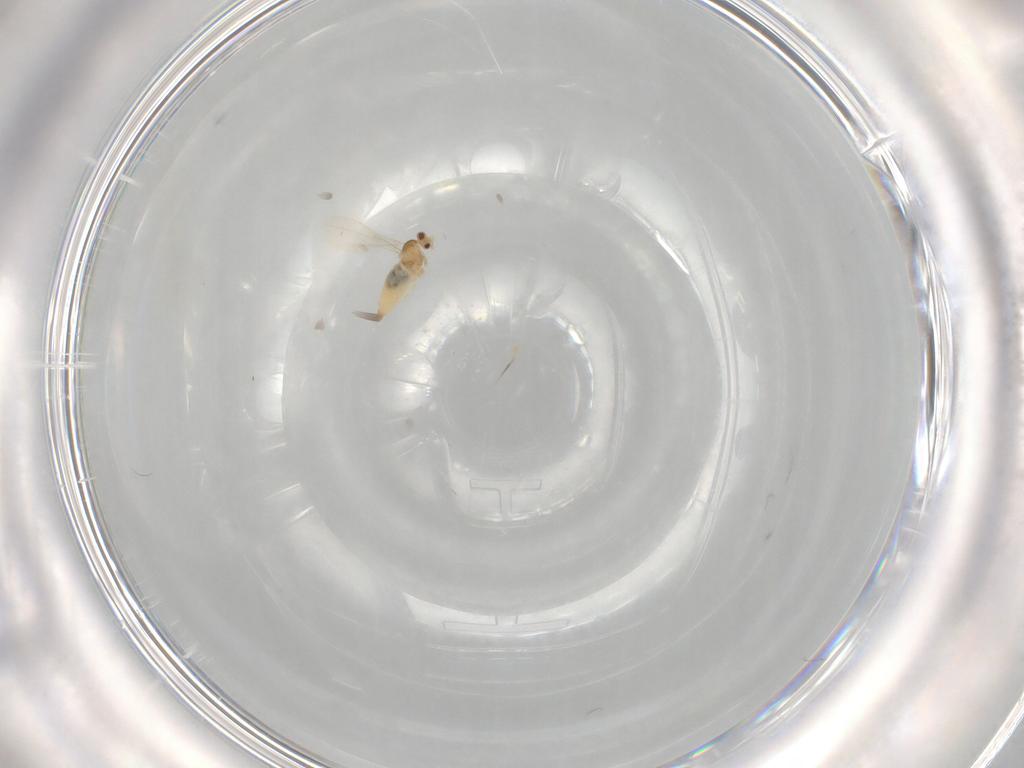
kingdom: Animalia
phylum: Arthropoda
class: Insecta
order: Diptera
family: Cecidomyiidae
